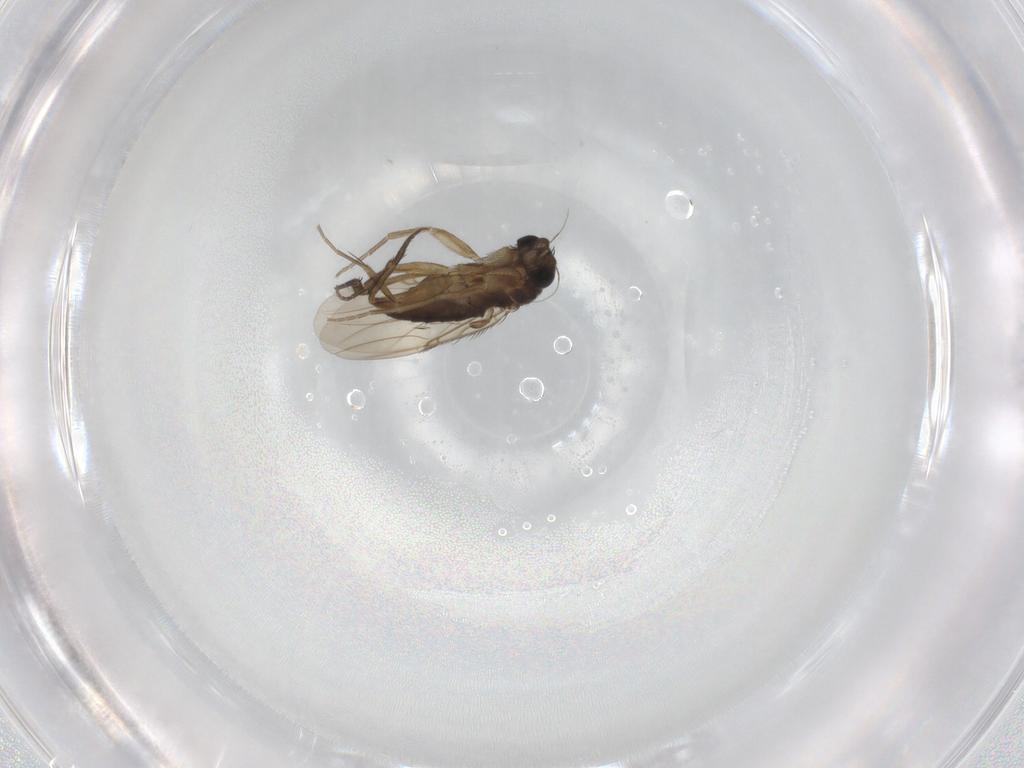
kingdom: Animalia
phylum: Arthropoda
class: Insecta
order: Diptera
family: Phoridae
